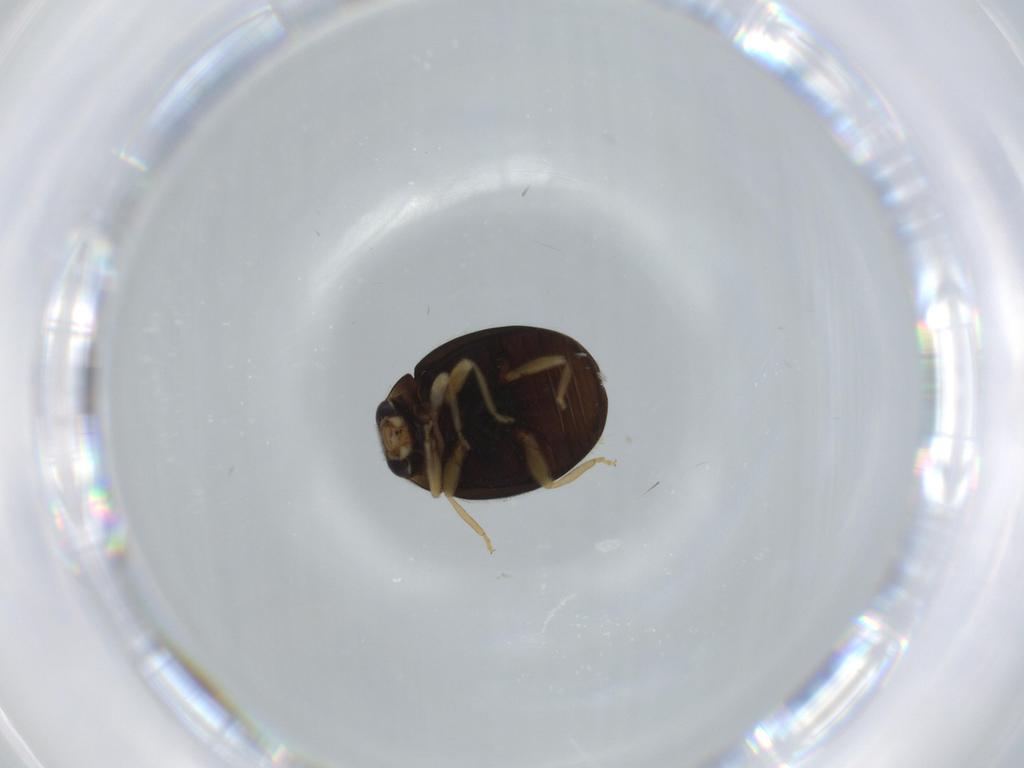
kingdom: Animalia
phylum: Arthropoda
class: Insecta
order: Coleoptera
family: Coccinellidae
